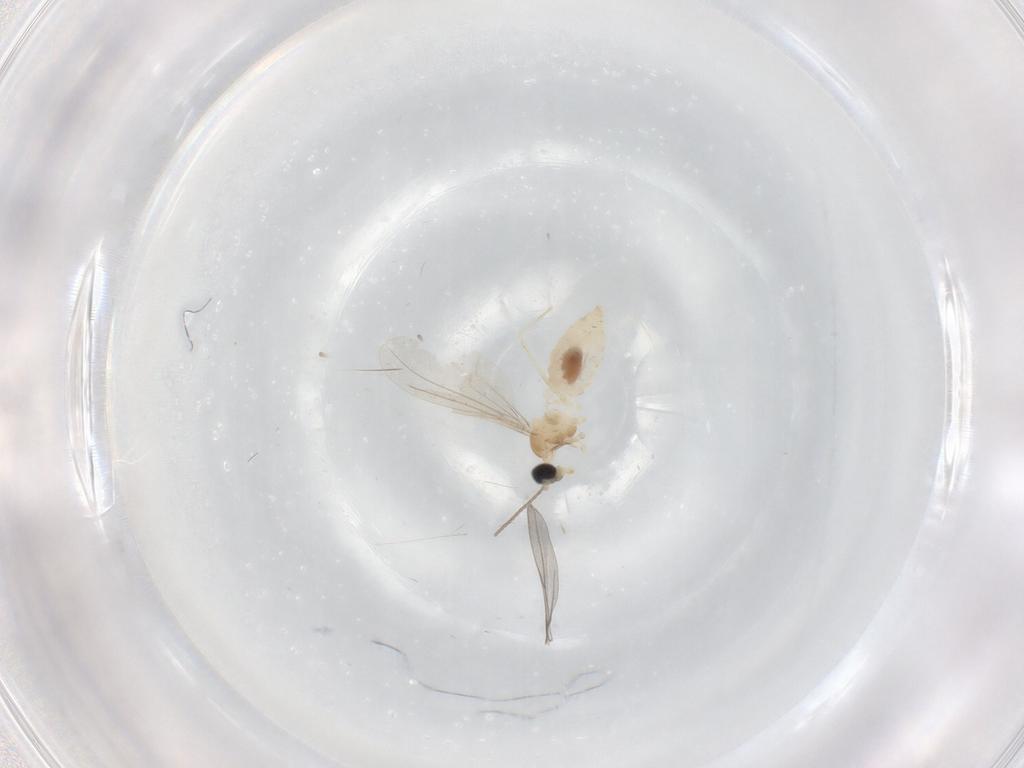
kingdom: Animalia
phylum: Arthropoda
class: Insecta
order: Diptera
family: Cecidomyiidae
